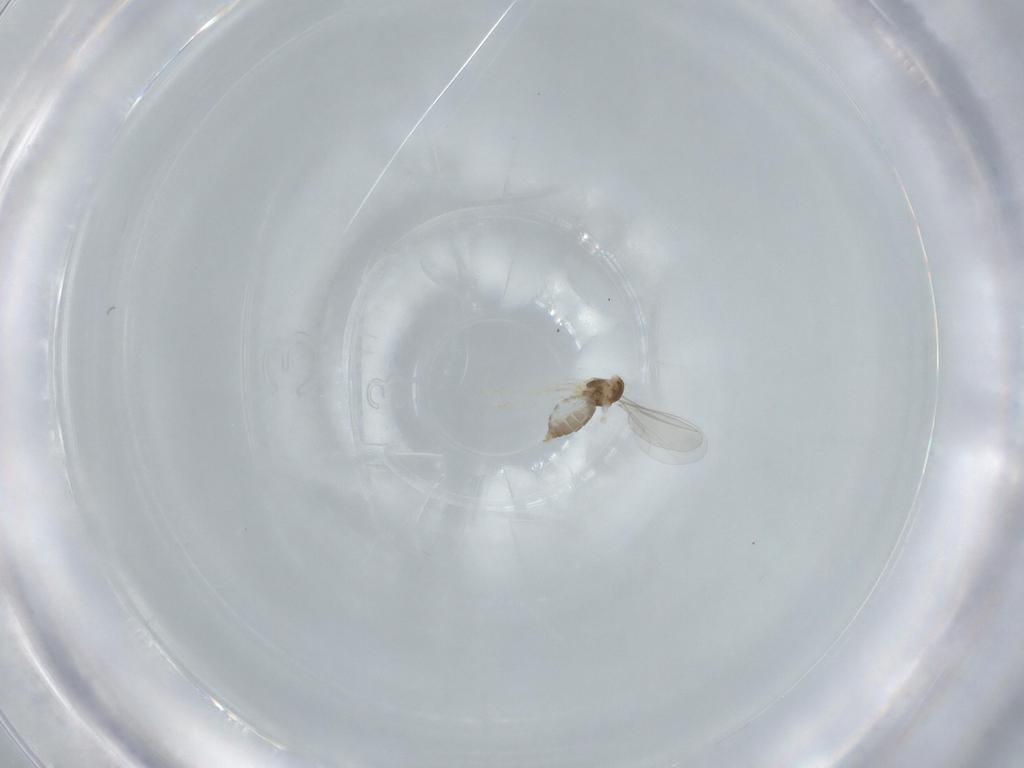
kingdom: Animalia
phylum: Arthropoda
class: Insecta
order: Diptera
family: Cecidomyiidae
